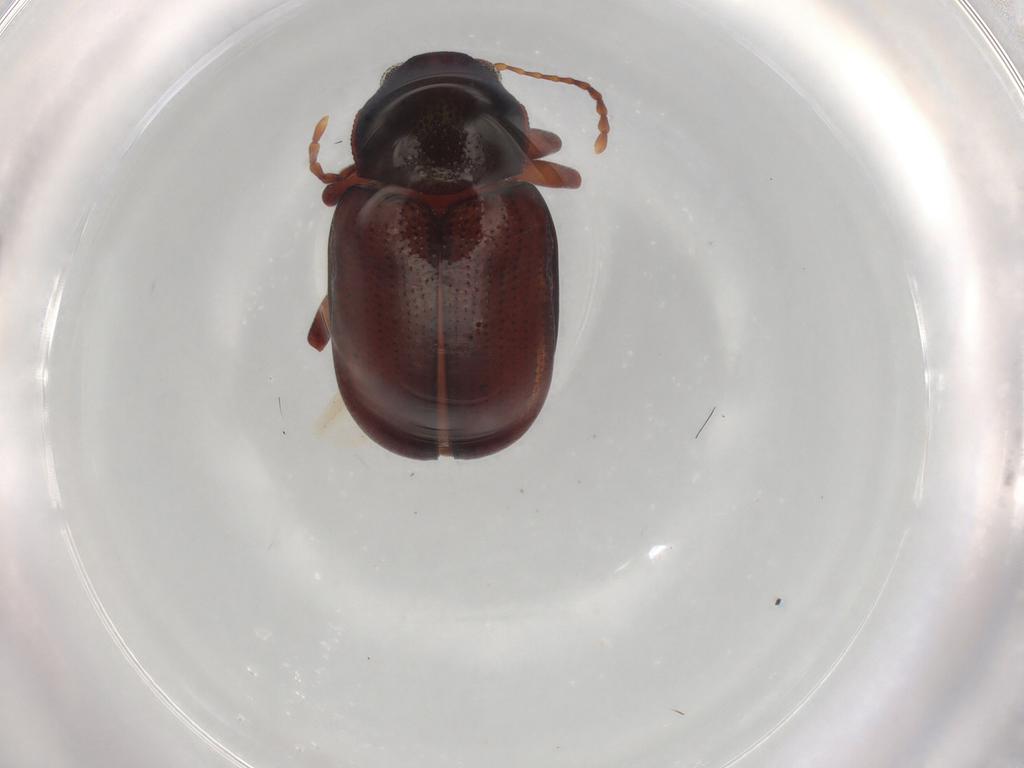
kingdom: Animalia
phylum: Arthropoda
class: Insecta
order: Coleoptera
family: Chrysomelidae
